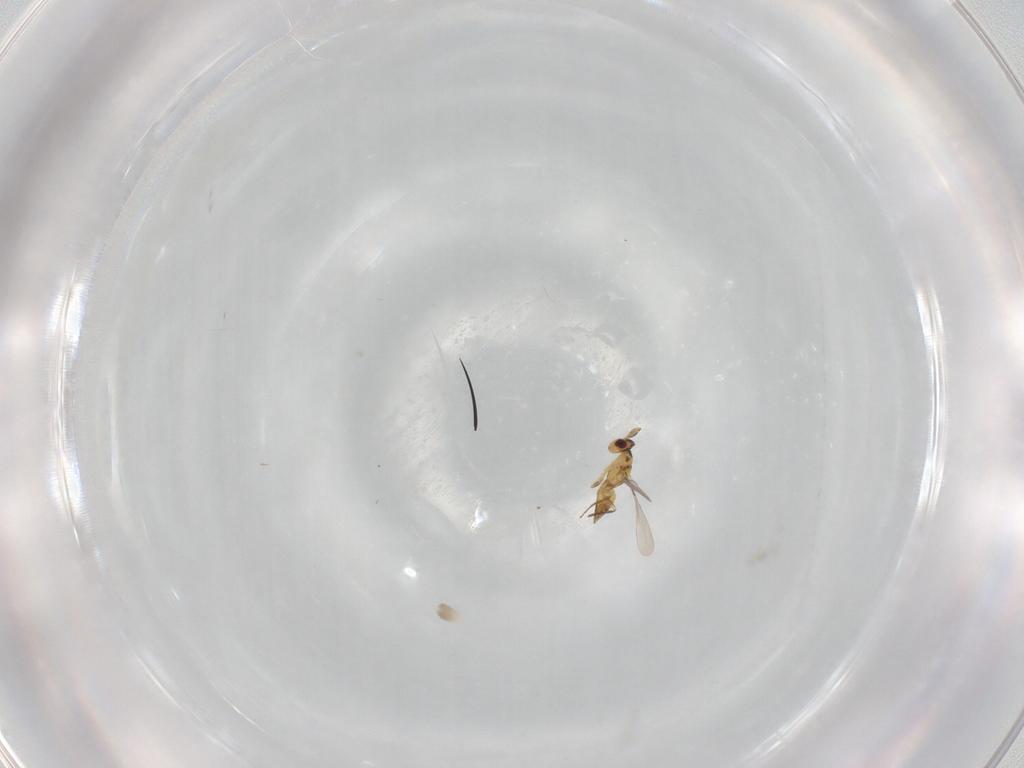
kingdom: Animalia
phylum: Arthropoda
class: Insecta
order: Hymenoptera
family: Mymaridae
